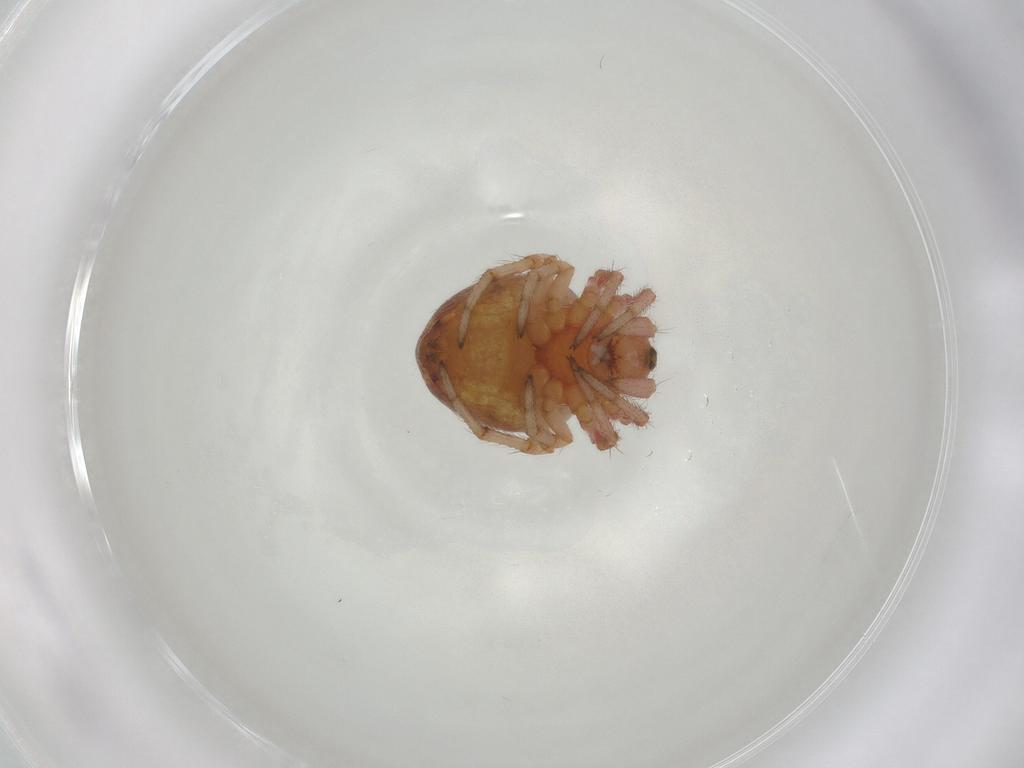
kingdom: Animalia
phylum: Arthropoda
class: Arachnida
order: Araneae
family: Araneidae
